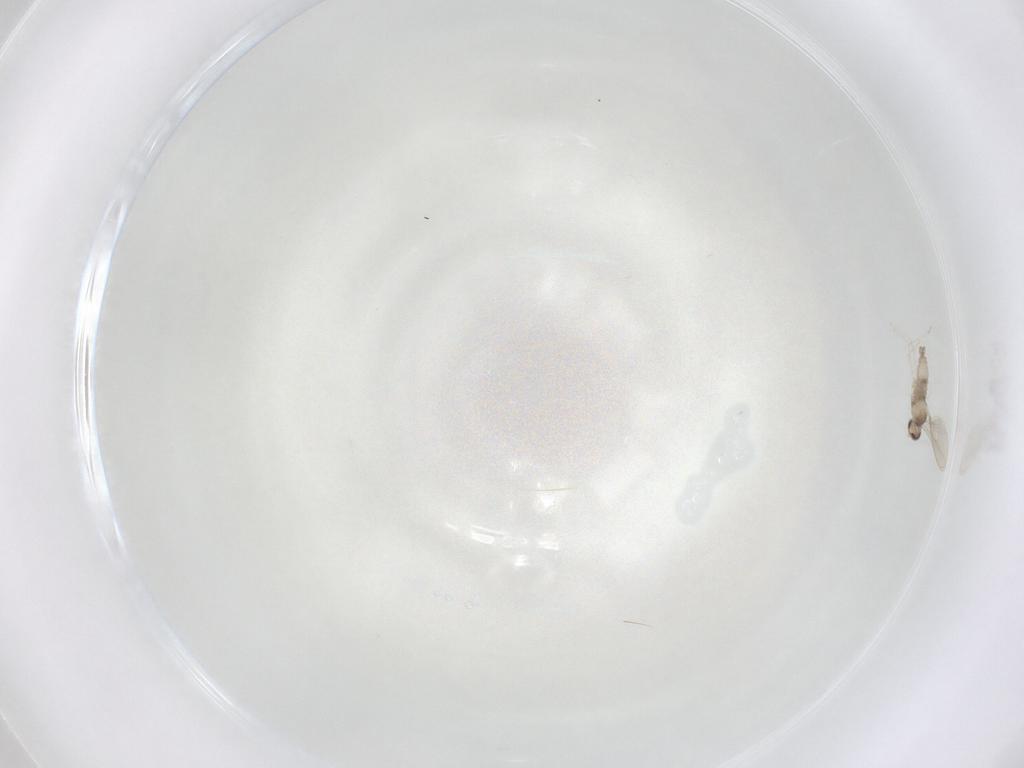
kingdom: Animalia
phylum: Arthropoda
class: Insecta
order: Diptera
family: Cecidomyiidae
